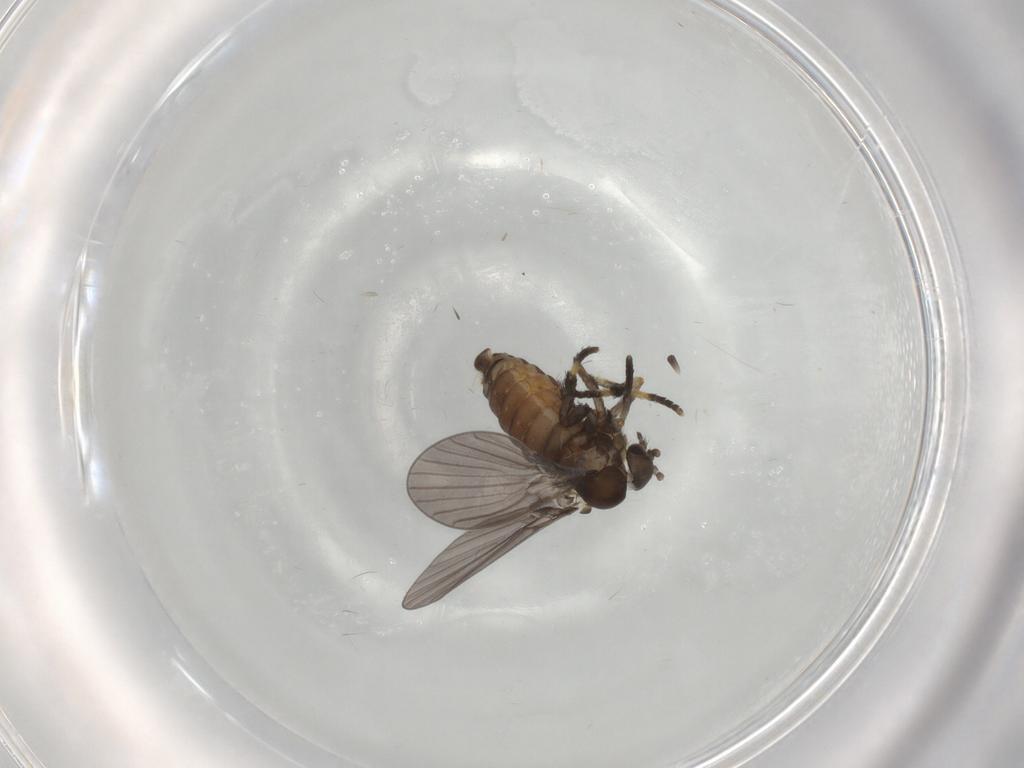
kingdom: Animalia
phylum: Arthropoda
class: Insecta
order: Diptera
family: Psychodidae
